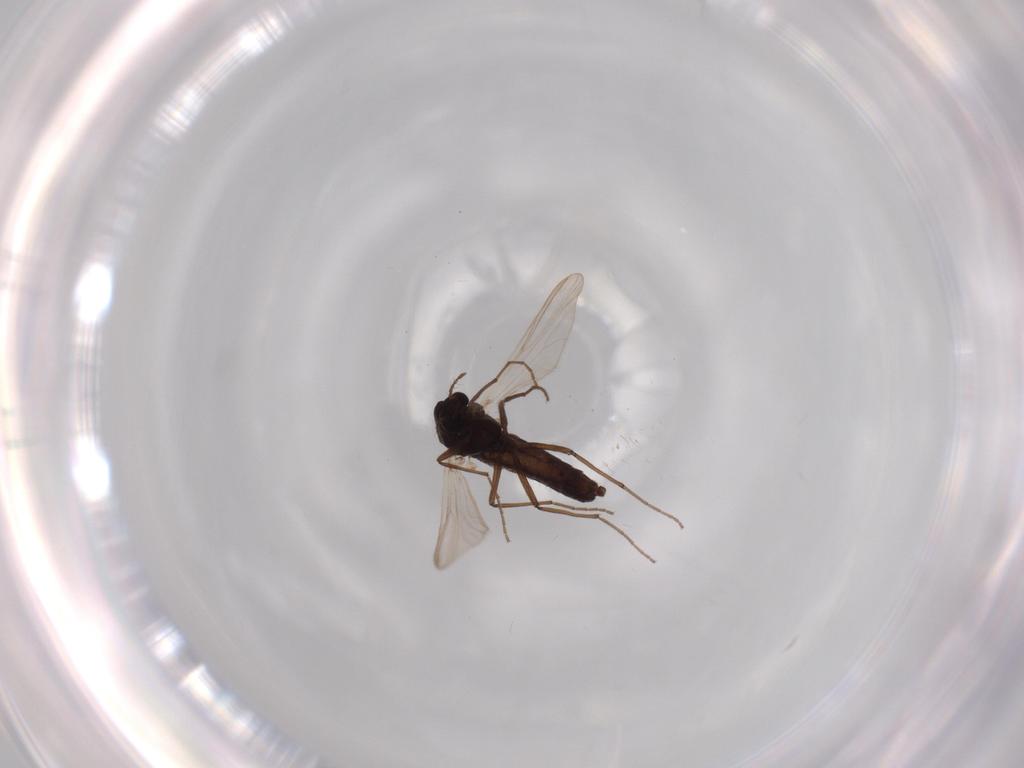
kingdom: Animalia
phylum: Arthropoda
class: Insecta
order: Diptera
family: Chironomidae
